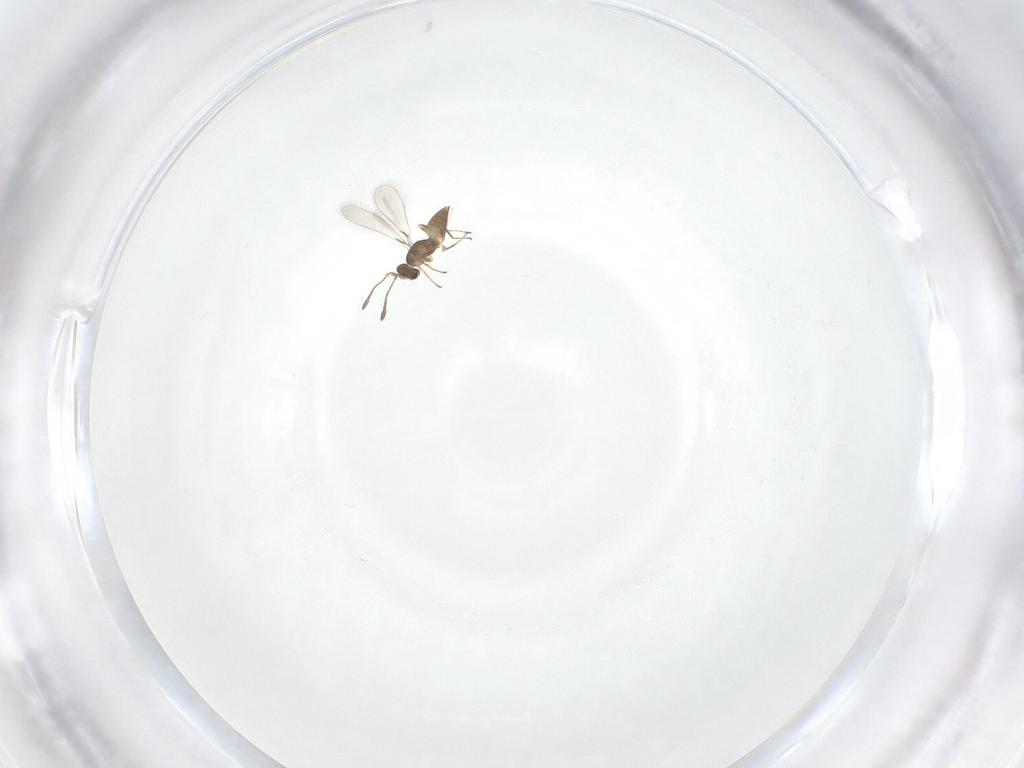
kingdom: Animalia
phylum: Arthropoda
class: Insecta
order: Hymenoptera
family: Mymaridae
